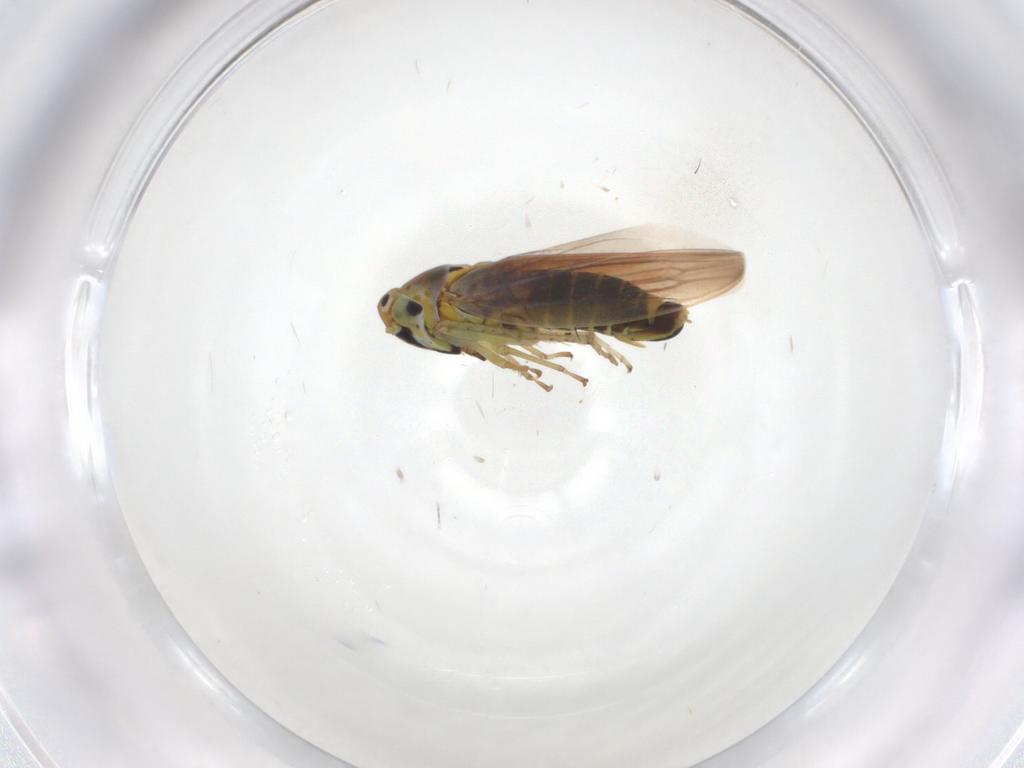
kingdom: Animalia
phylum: Arthropoda
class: Insecta
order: Hemiptera
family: Cicadellidae
